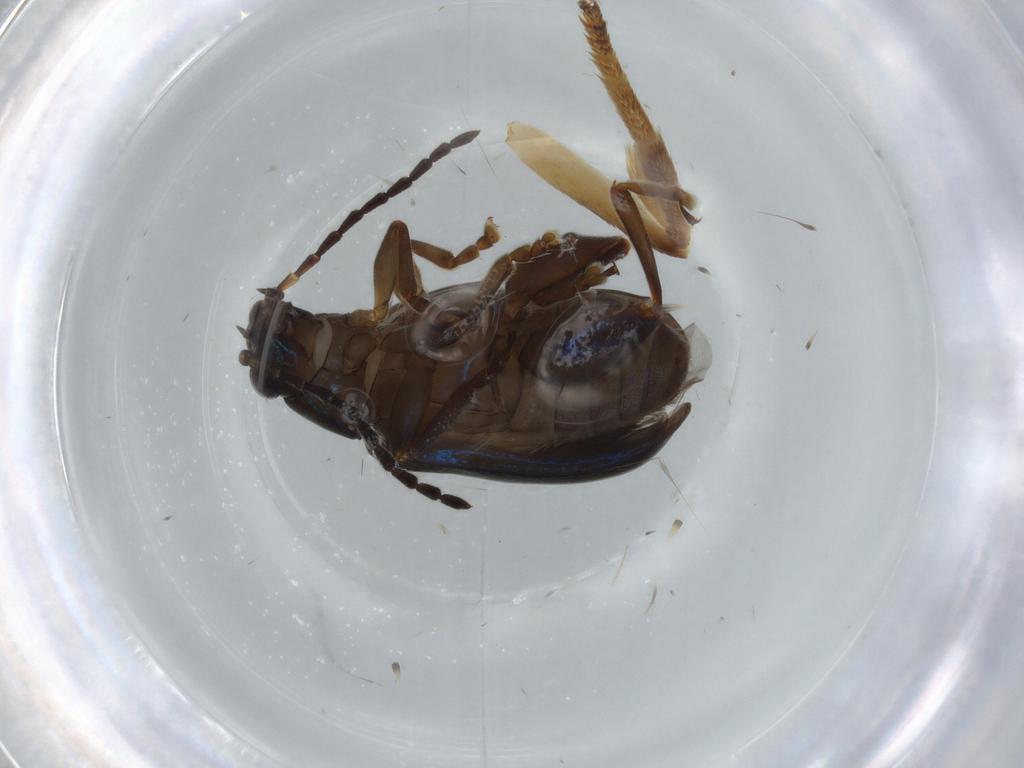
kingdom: Animalia
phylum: Arthropoda
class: Insecta
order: Coleoptera
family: Chrysomelidae
